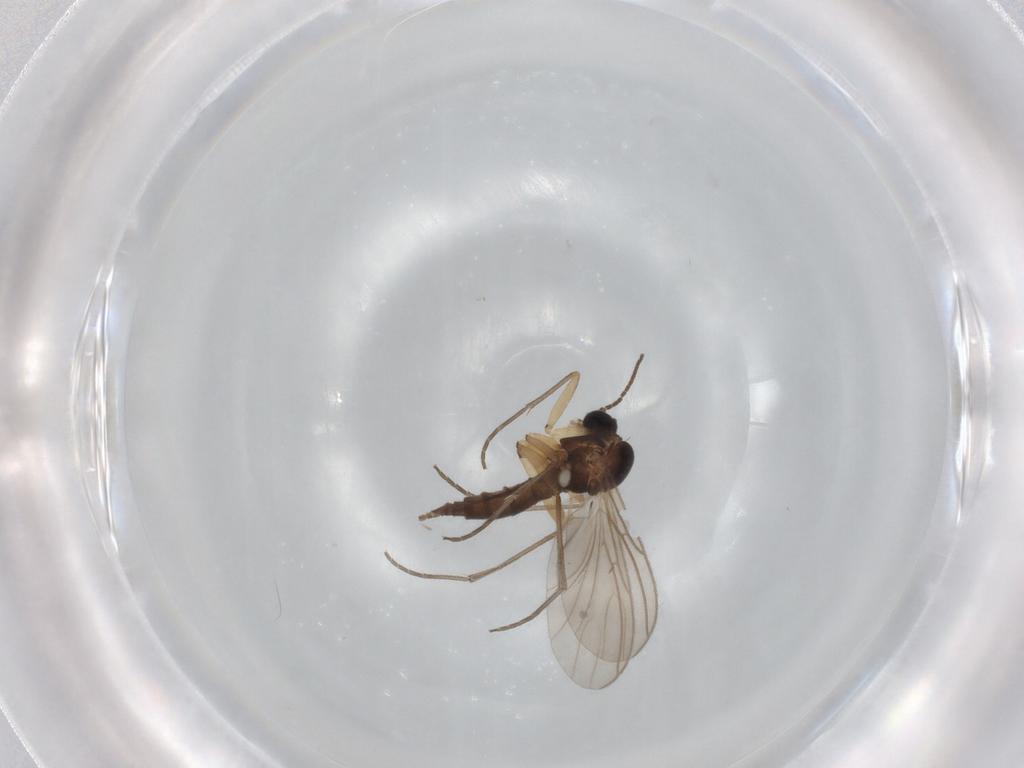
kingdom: Animalia
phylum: Arthropoda
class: Insecta
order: Diptera
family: Sciaridae
